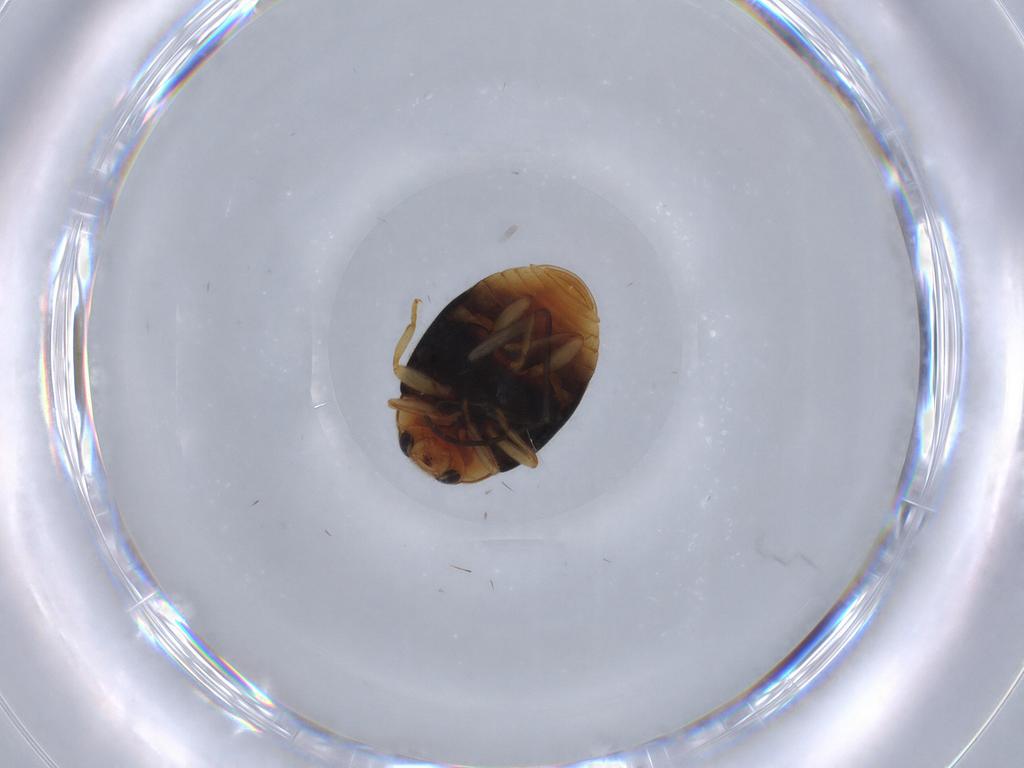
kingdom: Animalia
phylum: Arthropoda
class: Insecta
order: Coleoptera
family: Coccinellidae
